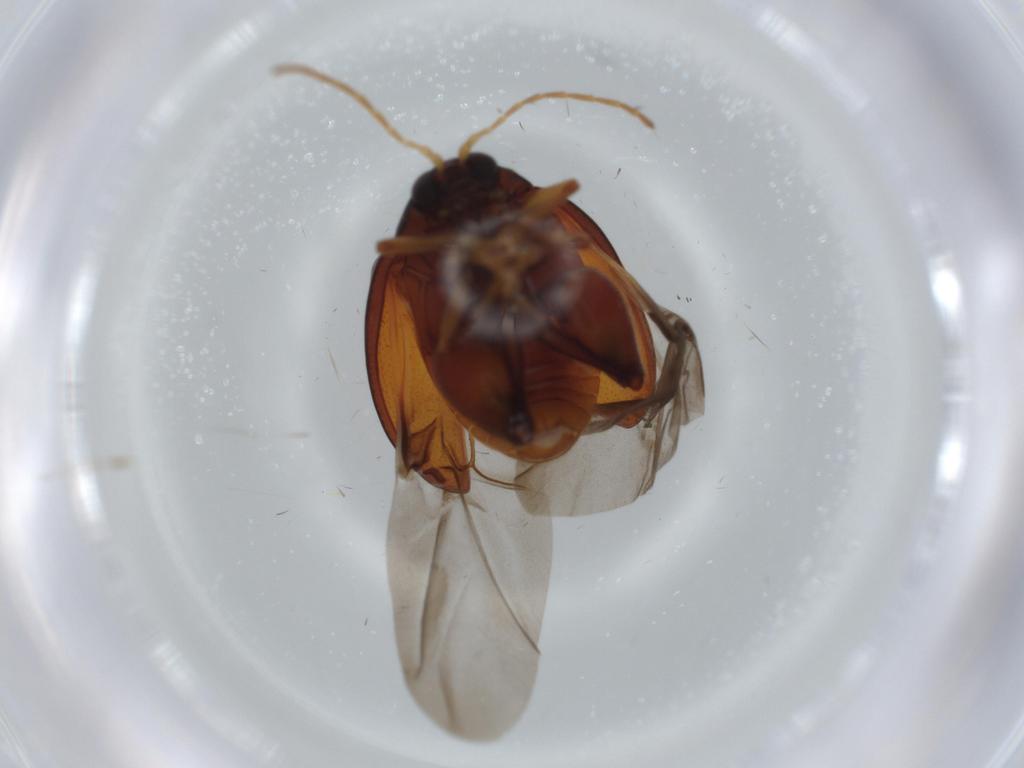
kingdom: Animalia
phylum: Arthropoda
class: Insecta
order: Coleoptera
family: Chrysomelidae
